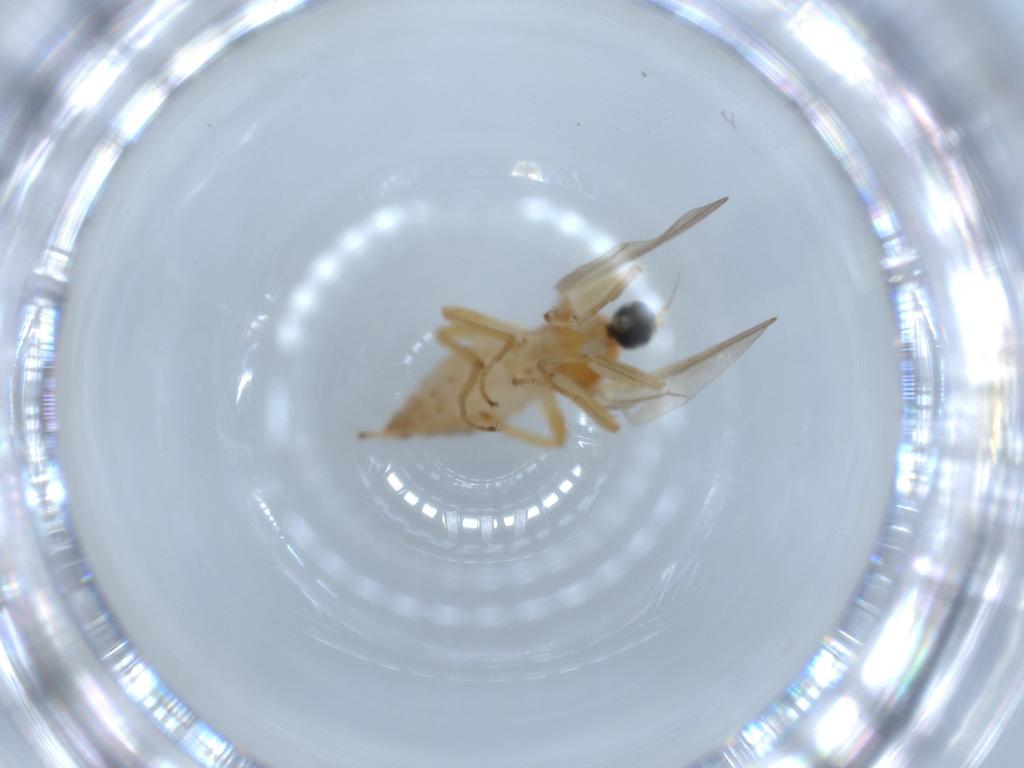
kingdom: Animalia
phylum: Arthropoda
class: Insecta
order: Diptera
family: Hybotidae
